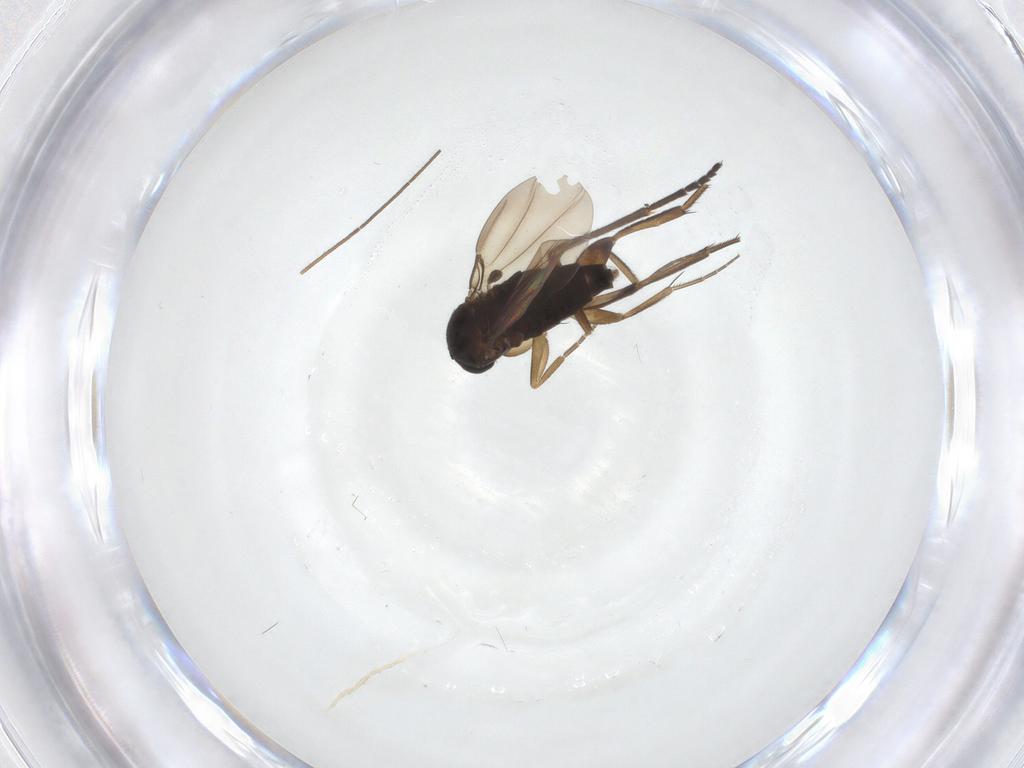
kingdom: Animalia
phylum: Arthropoda
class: Insecta
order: Diptera
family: Phoridae
